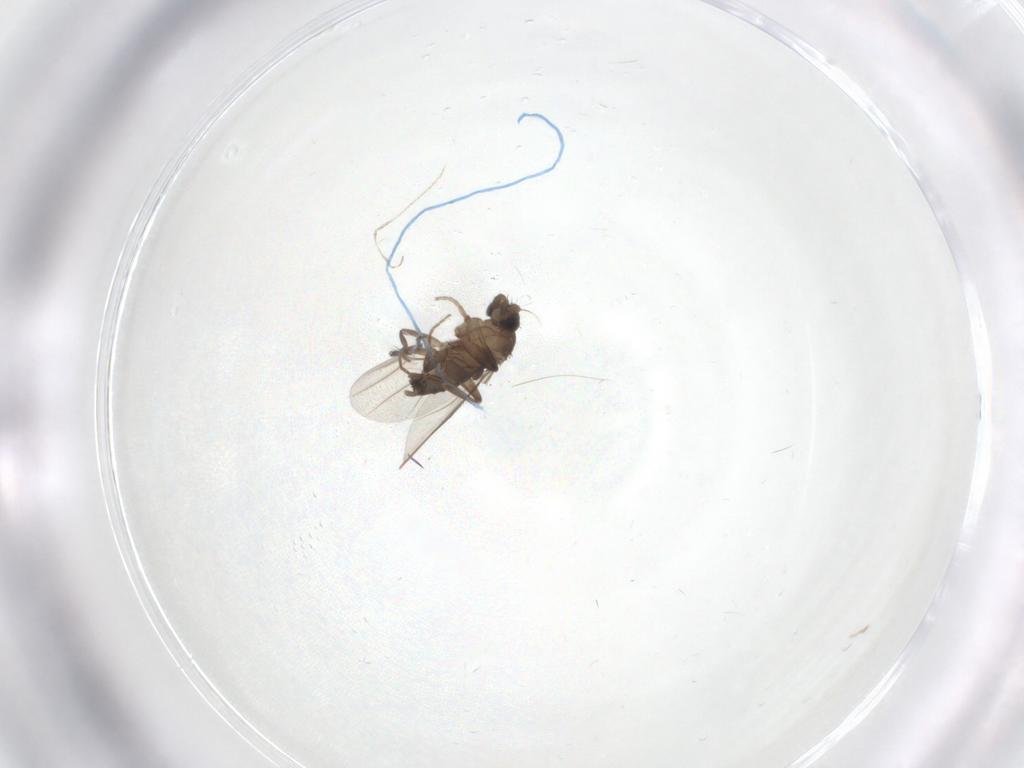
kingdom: Animalia
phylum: Arthropoda
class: Insecta
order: Diptera
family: Phoridae
